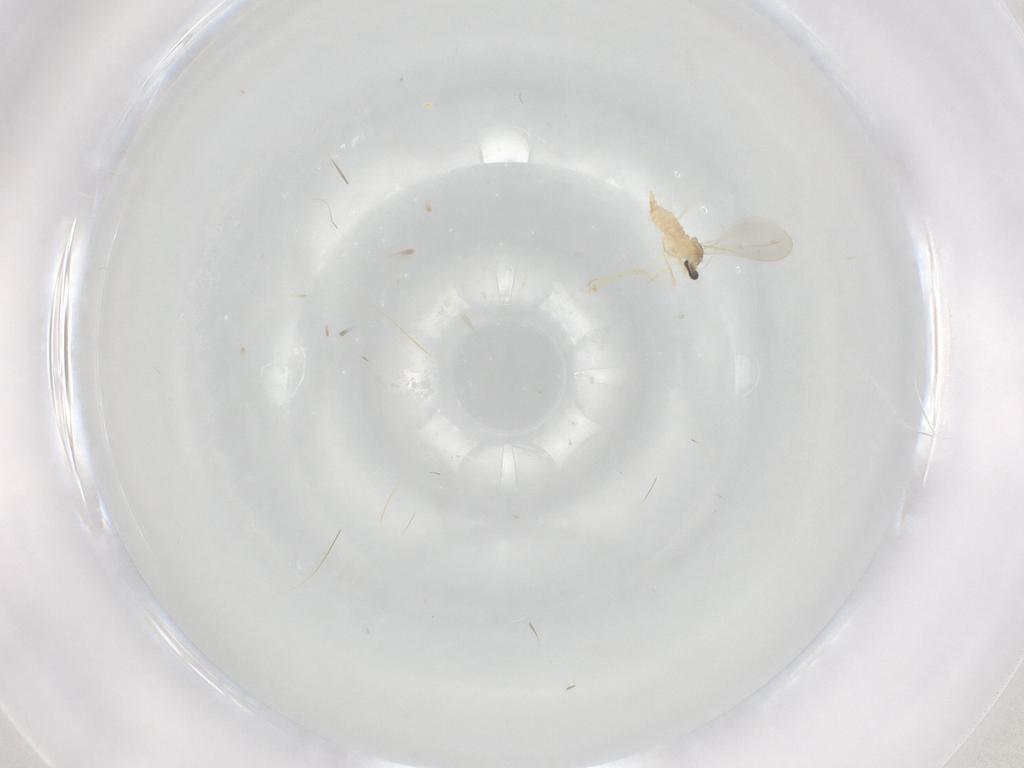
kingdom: Animalia
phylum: Arthropoda
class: Insecta
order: Diptera
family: Cecidomyiidae
